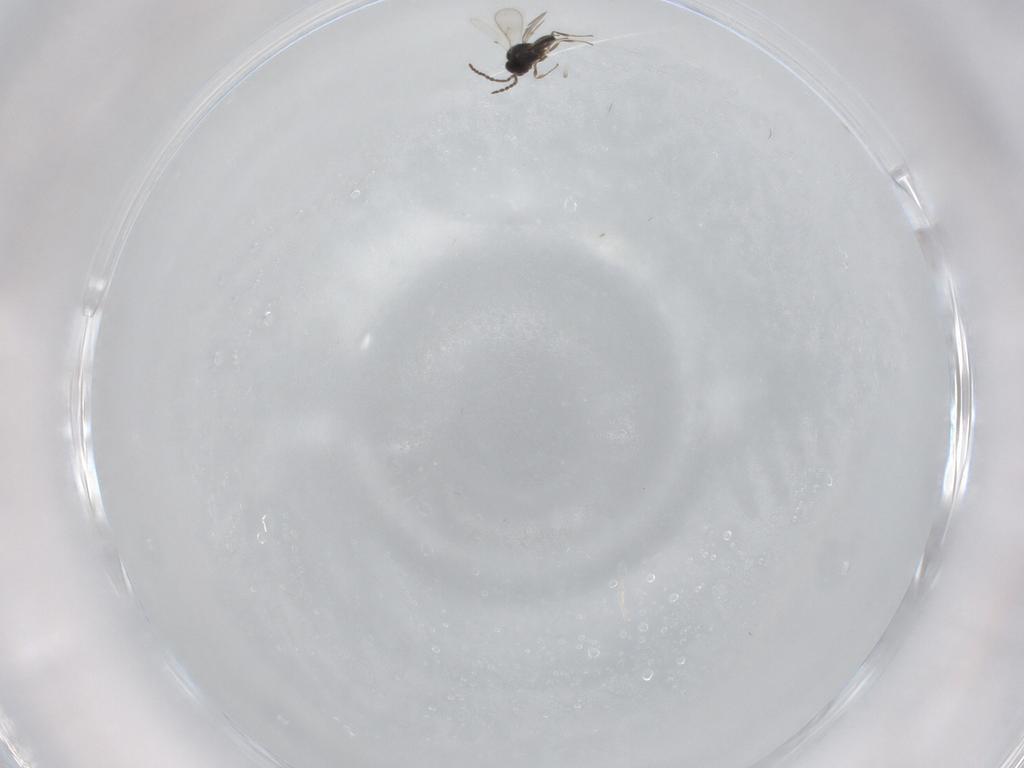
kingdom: Animalia
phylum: Arthropoda
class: Insecta
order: Hymenoptera
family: Scelionidae
